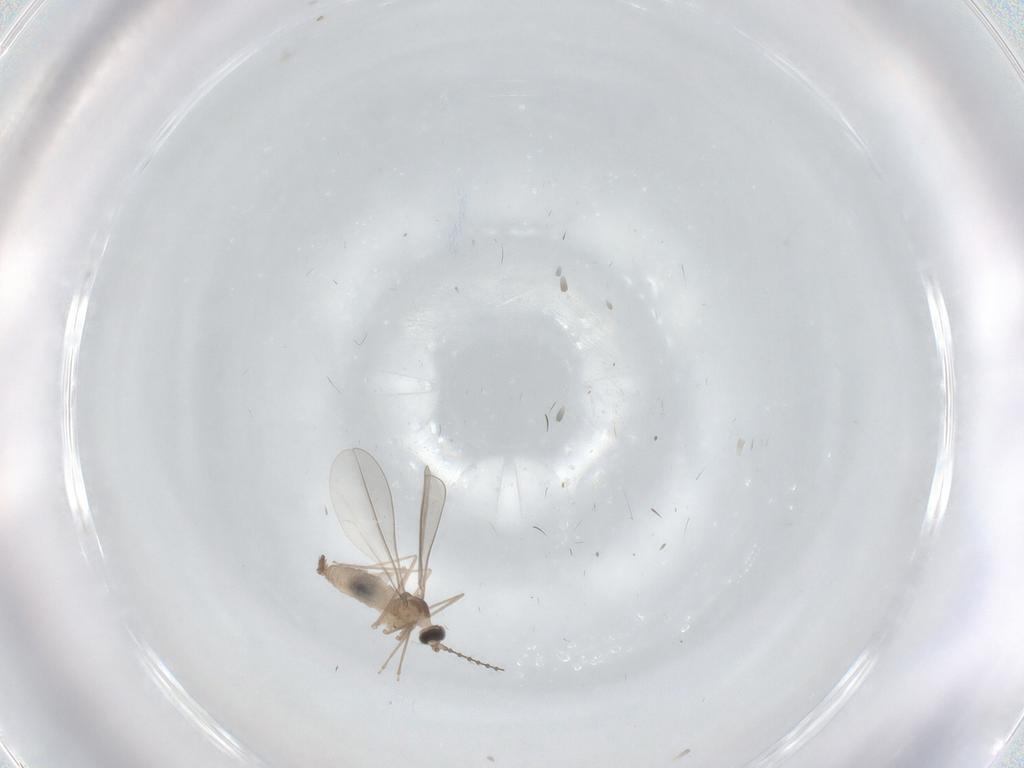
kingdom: Animalia
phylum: Arthropoda
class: Insecta
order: Diptera
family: Cecidomyiidae
